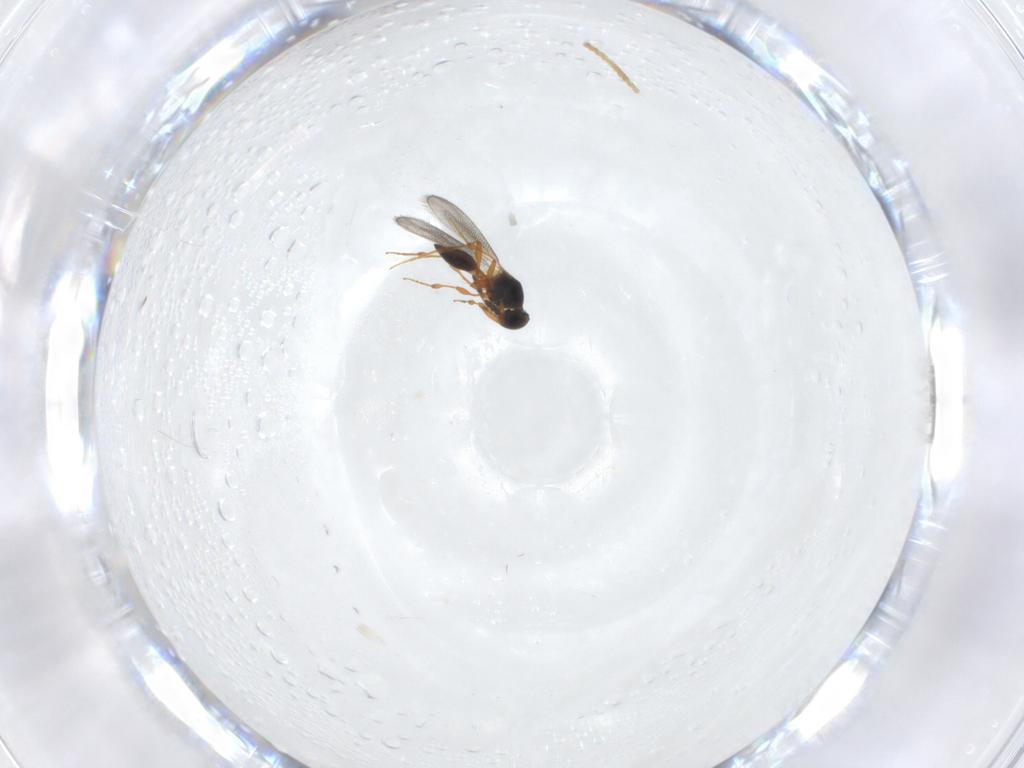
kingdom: Animalia
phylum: Arthropoda
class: Insecta
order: Hymenoptera
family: Platygastridae
